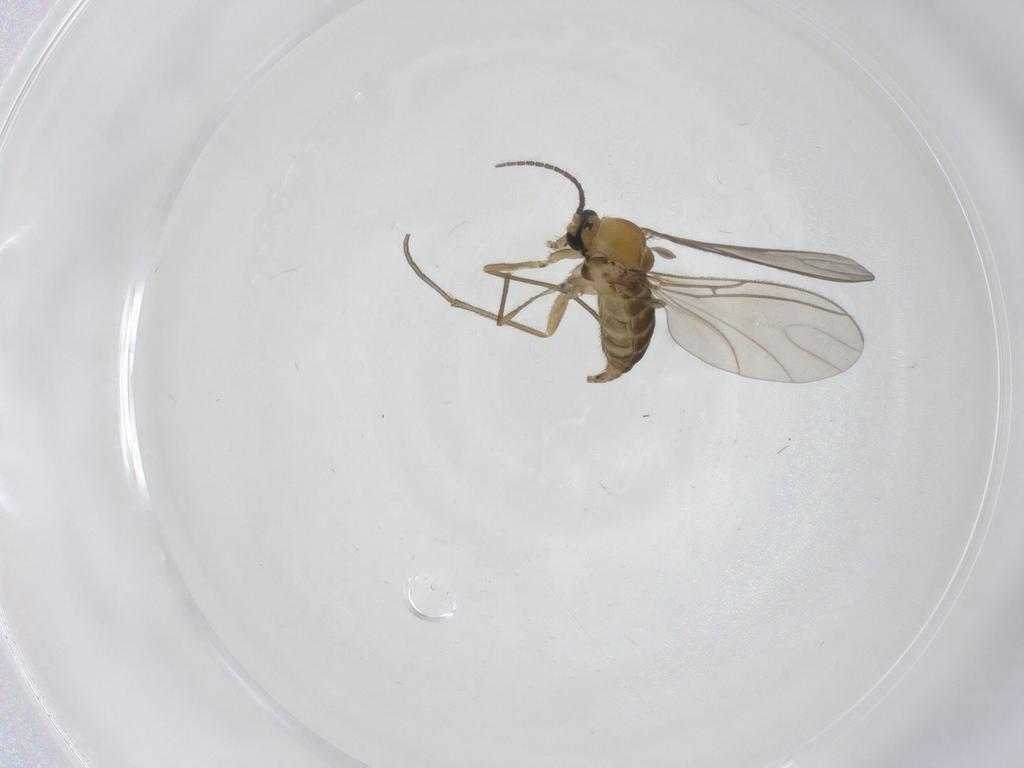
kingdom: Animalia
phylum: Arthropoda
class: Insecta
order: Diptera
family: Sciaridae
